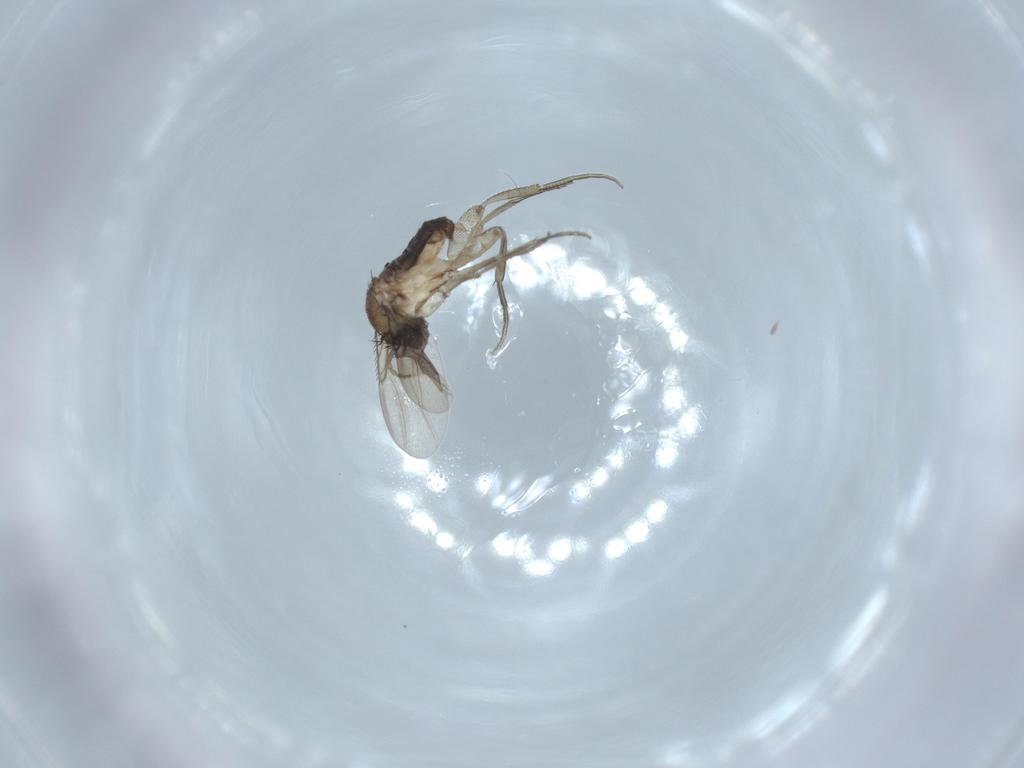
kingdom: Animalia
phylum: Arthropoda
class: Insecta
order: Diptera
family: Phoridae
